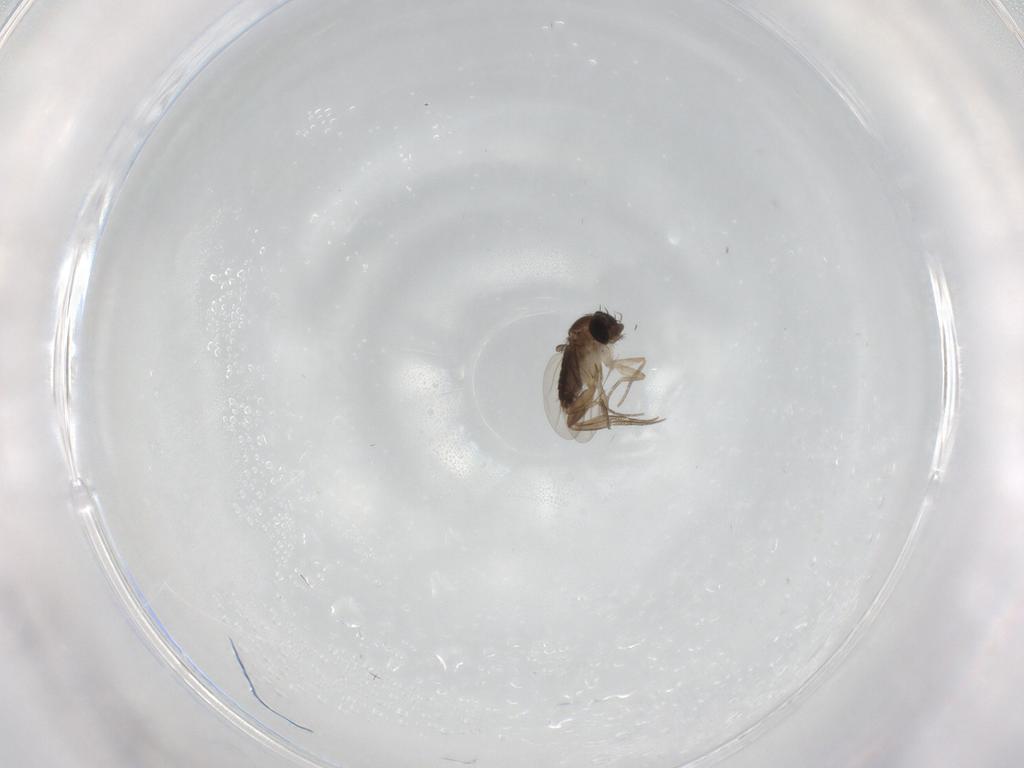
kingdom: Animalia
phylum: Arthropoda
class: Insecta
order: Diptera
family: Phoridae
